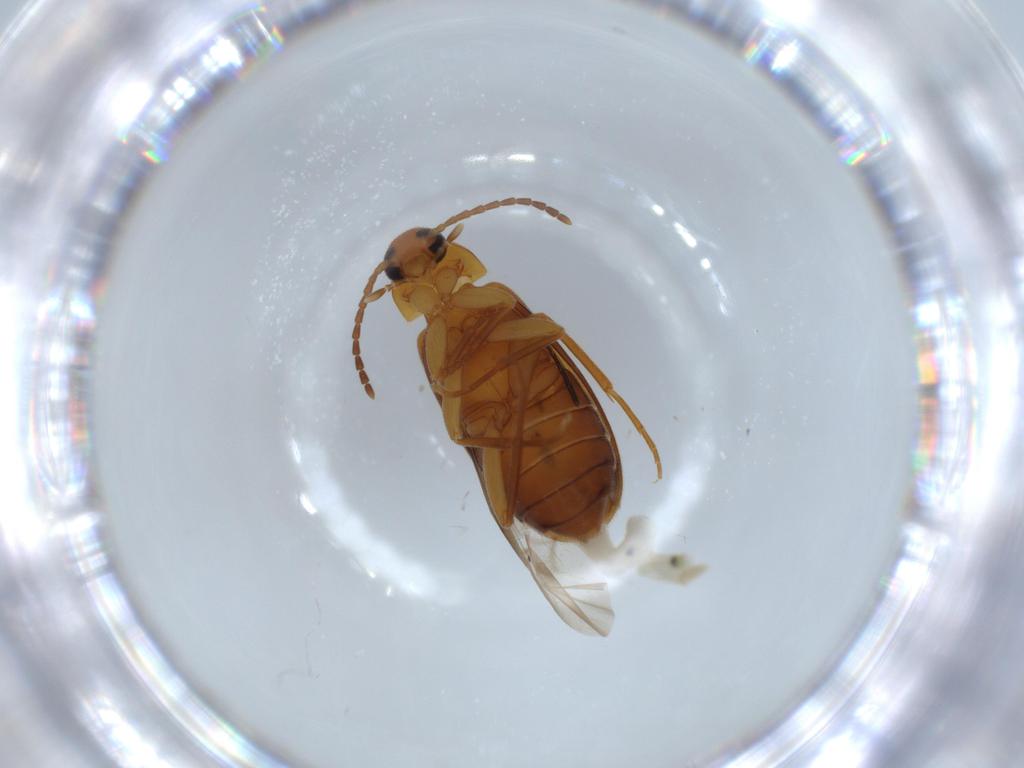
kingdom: Animalia
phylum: Arthropoda
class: Insecta
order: Coleoptera
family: Scraptiidae
